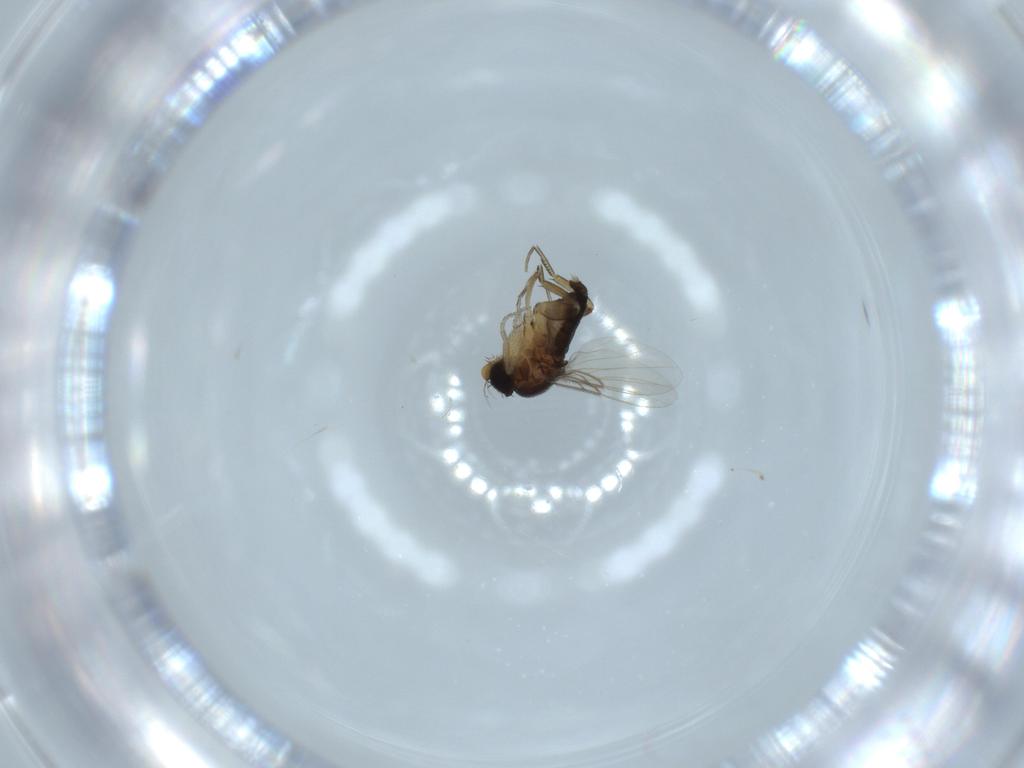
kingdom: Animalia
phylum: Arthropoda
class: Insecta
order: Diptera
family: Phoridae
